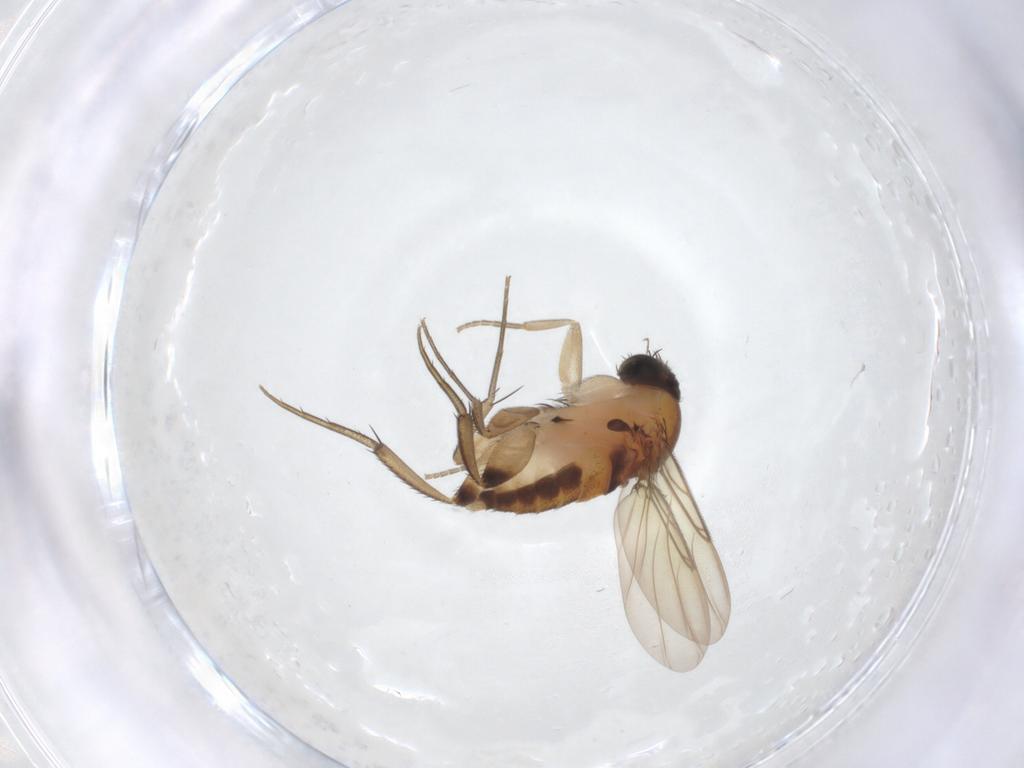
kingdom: Animalia
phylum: Arthropoda
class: Insecta
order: Diptera
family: Phoridae
